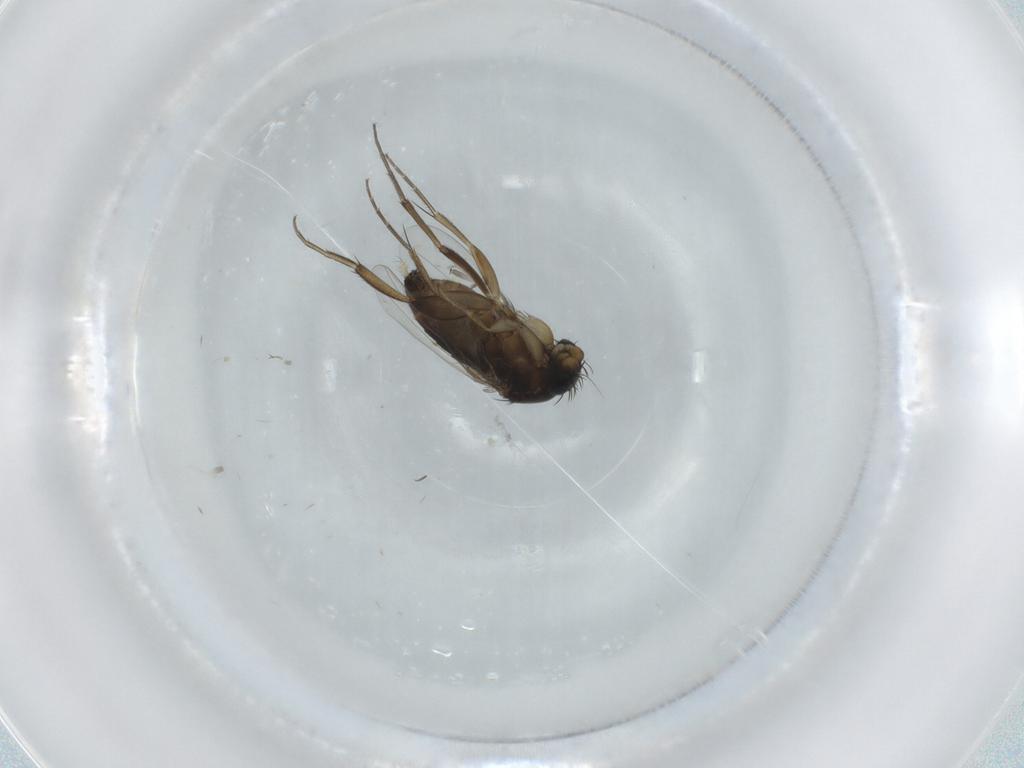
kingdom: Animalia
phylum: Arthropoda
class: Insecta
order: Diptera
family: Phoridae
